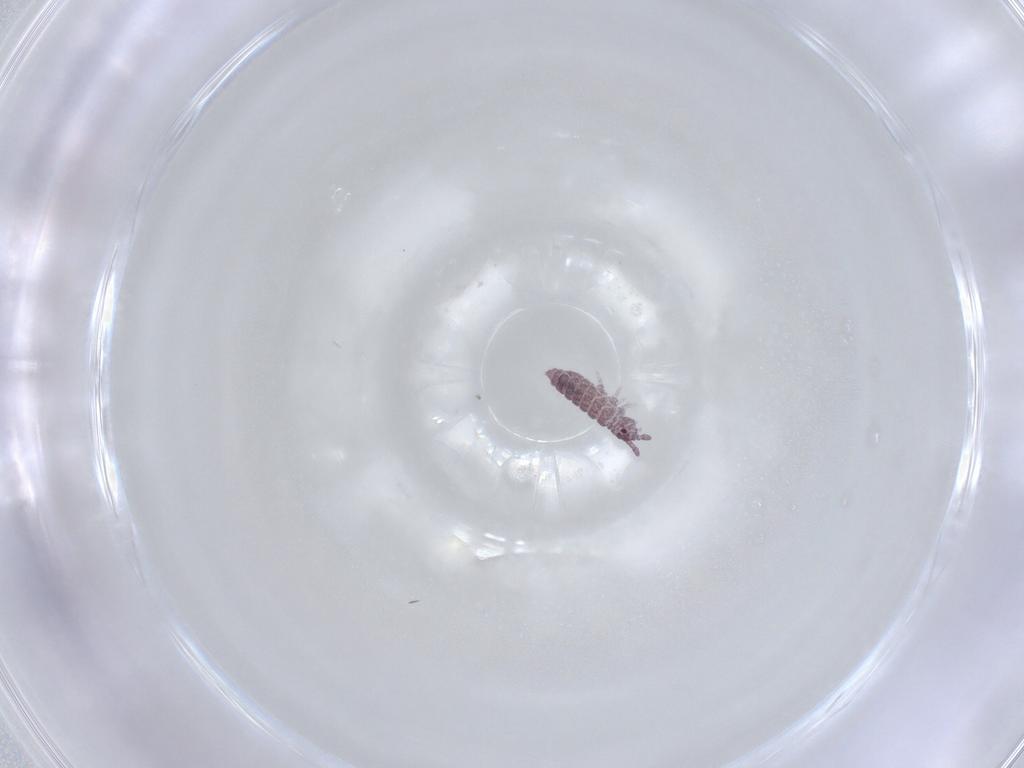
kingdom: Animalia
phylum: Arthropoda
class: Collembola
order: Poduromorpha
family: Hypogastruridae
